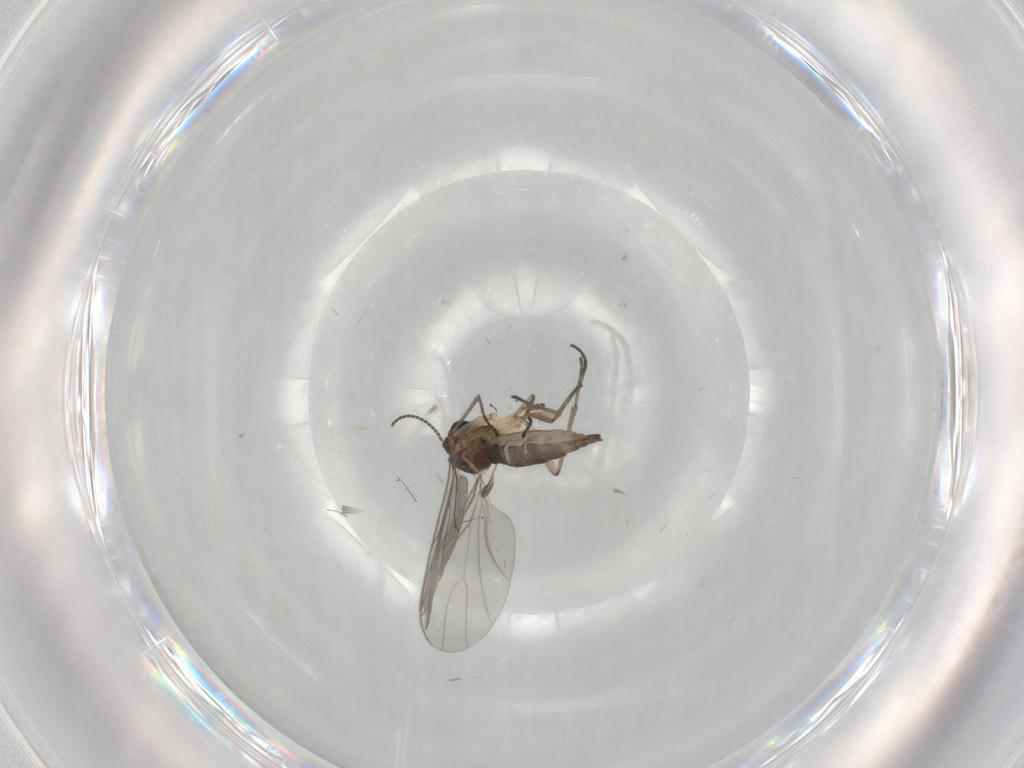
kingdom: Animalia
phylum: Arthropoda
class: Insecta
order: Diptera
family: Sciaridae
